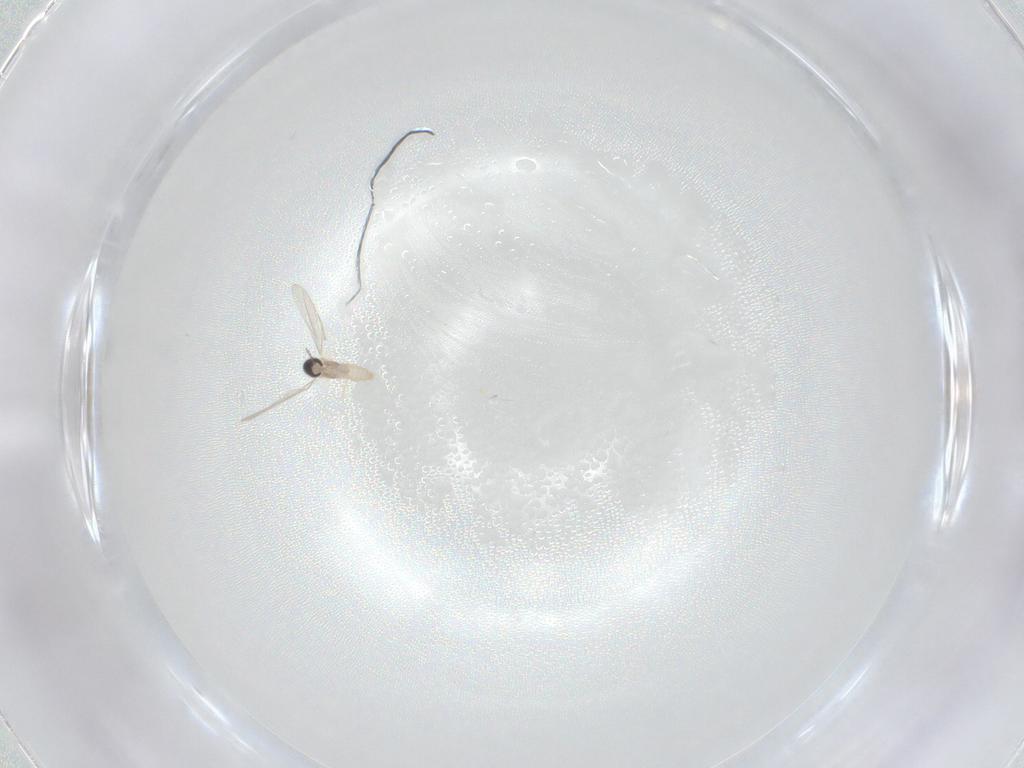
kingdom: Animalia
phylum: Arthropoda
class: Insecta
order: Diptera
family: Cecidomyiidae
